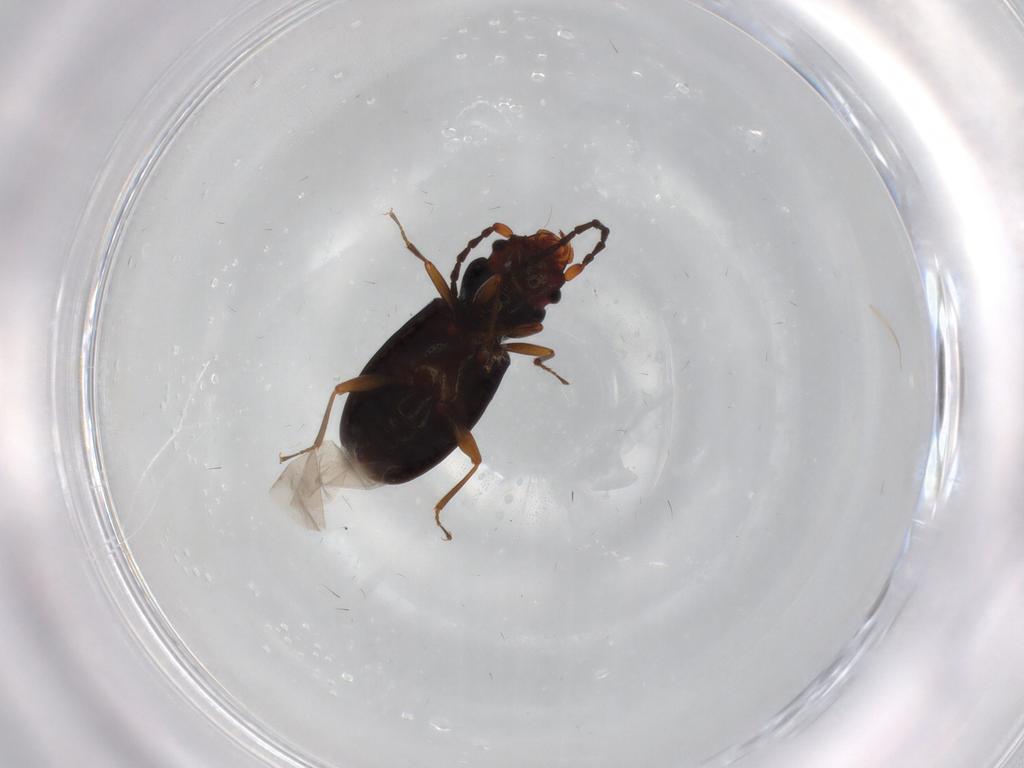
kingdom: Animalia
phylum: Arthropoda
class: Insecta
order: Coleoptera
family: Laemophloeidae
